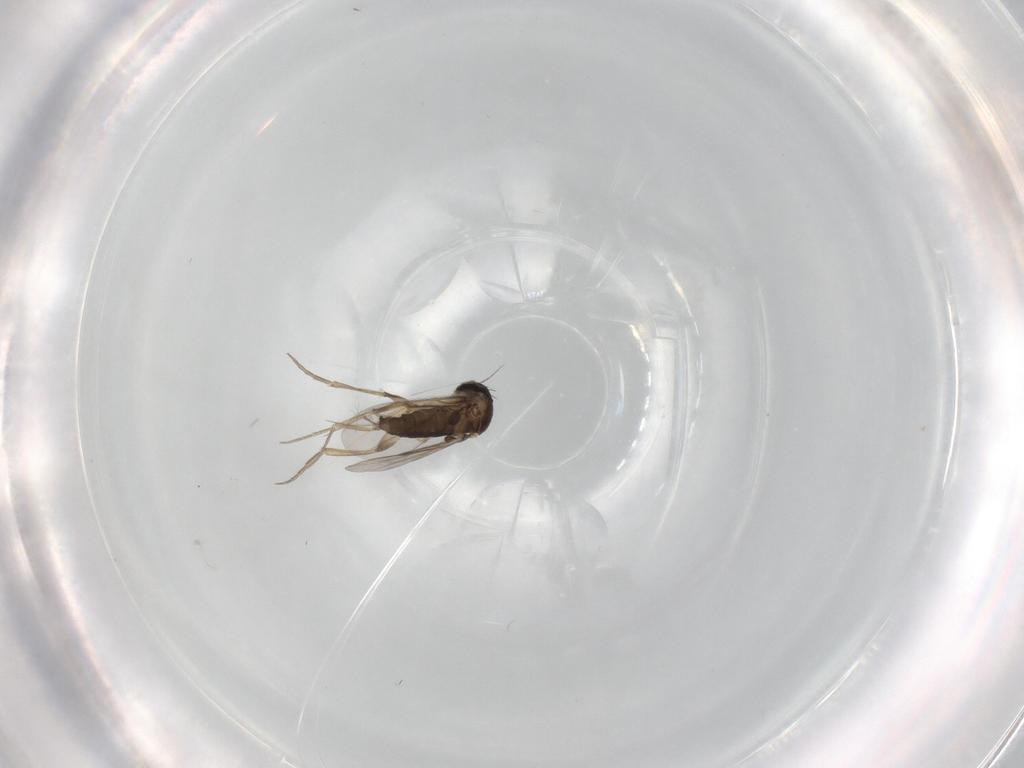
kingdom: Animalia
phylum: Arthropoda
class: Insecta
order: Diptera
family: Phoridae
